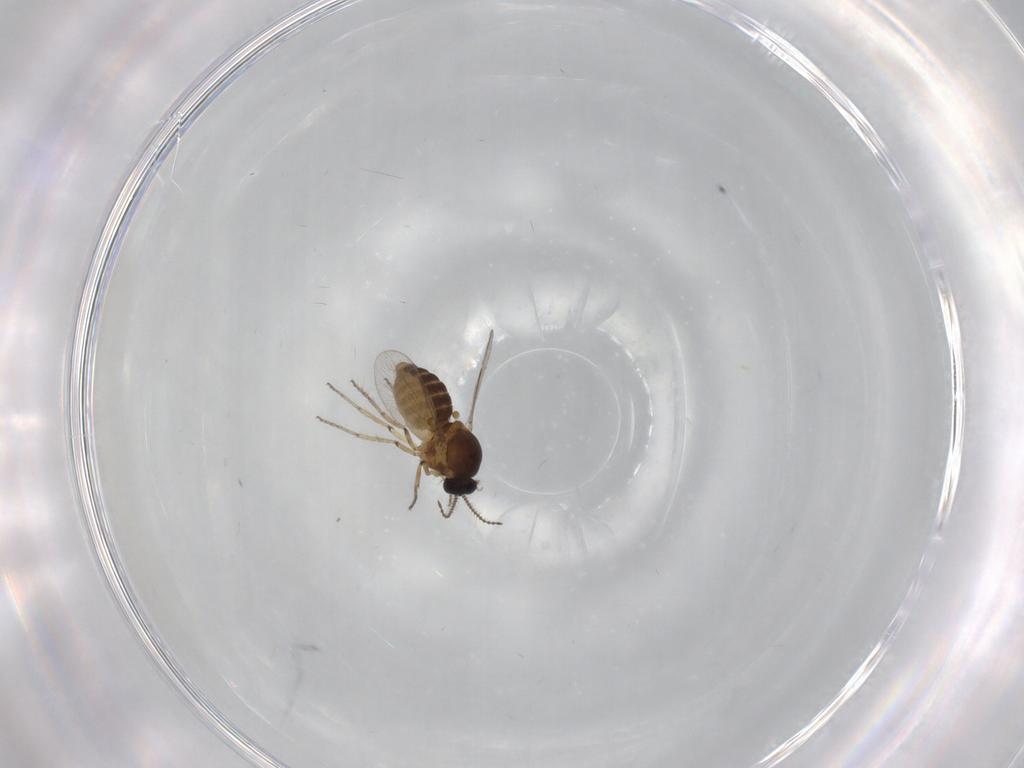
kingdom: Animalia
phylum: Arthropoda
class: Insecta
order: Diptera
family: Ceratopogonidae
